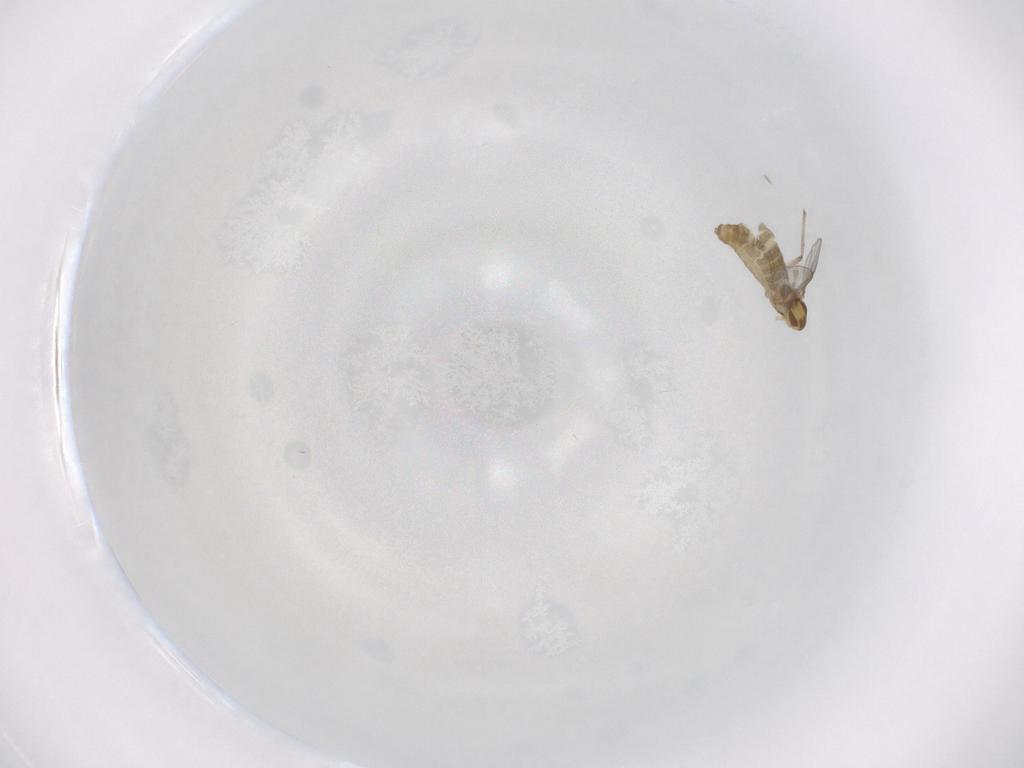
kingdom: Animalia
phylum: Arthropoda
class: Insecta
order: Diptera
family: Chironomidae
